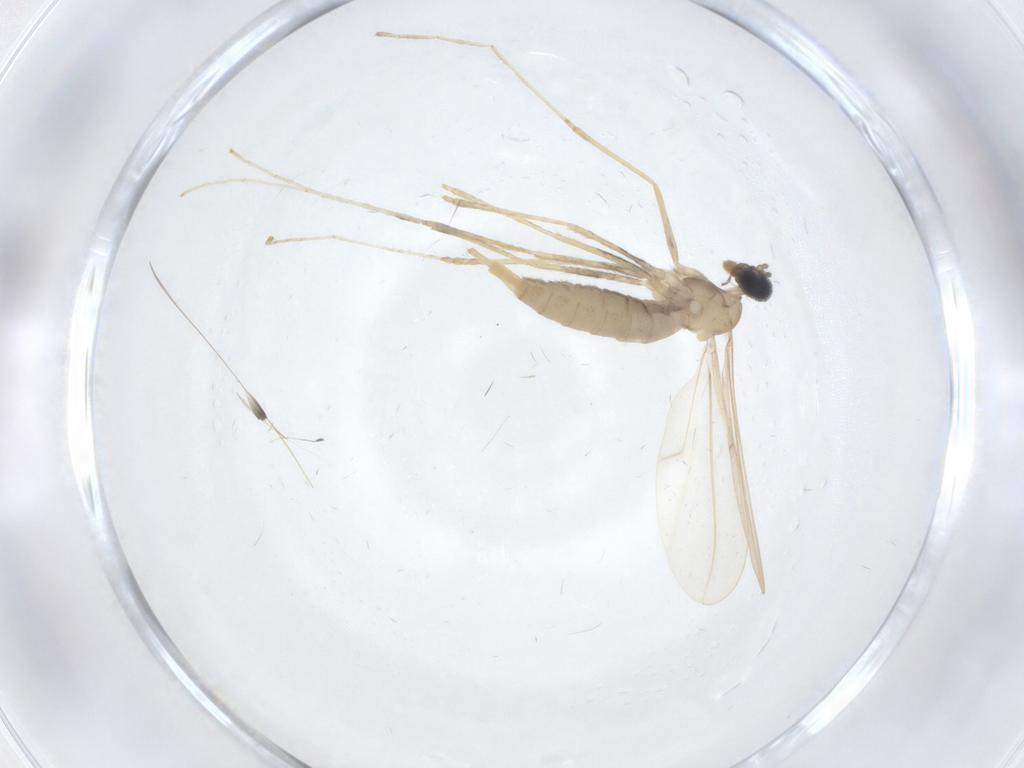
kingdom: Animalia
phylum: Arthropoda
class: Insecta
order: Diptera
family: Cecidomyiidae
